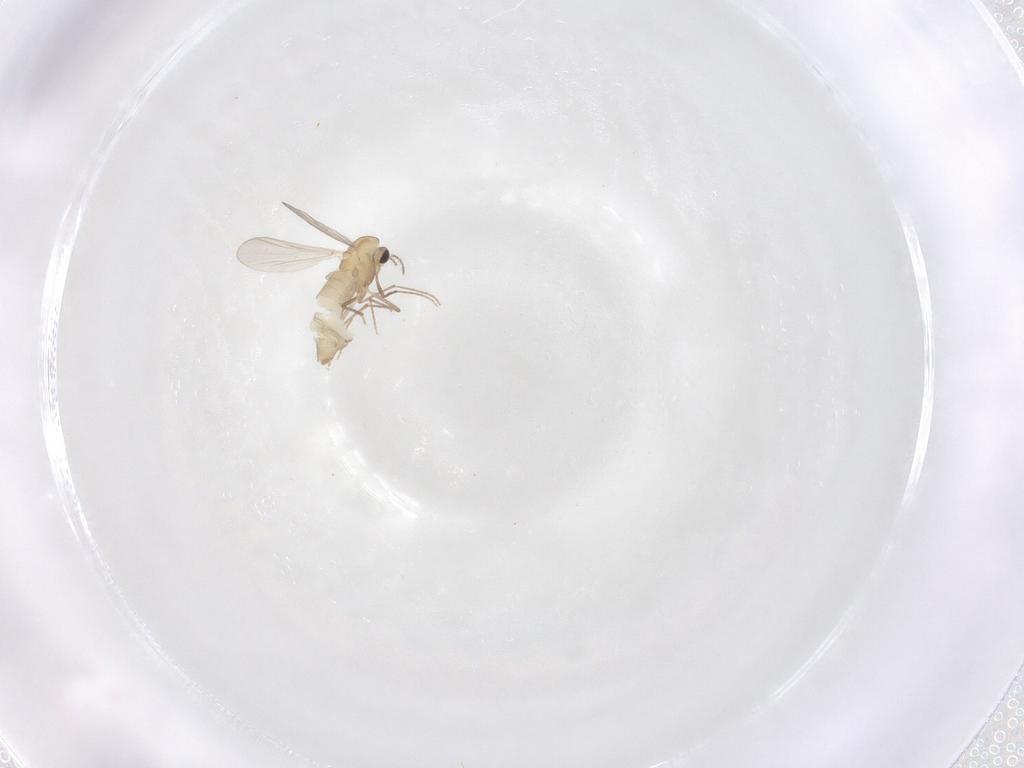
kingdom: Animalia
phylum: Arthropoda
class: Insecta
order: Diptera
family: Chironomidae
